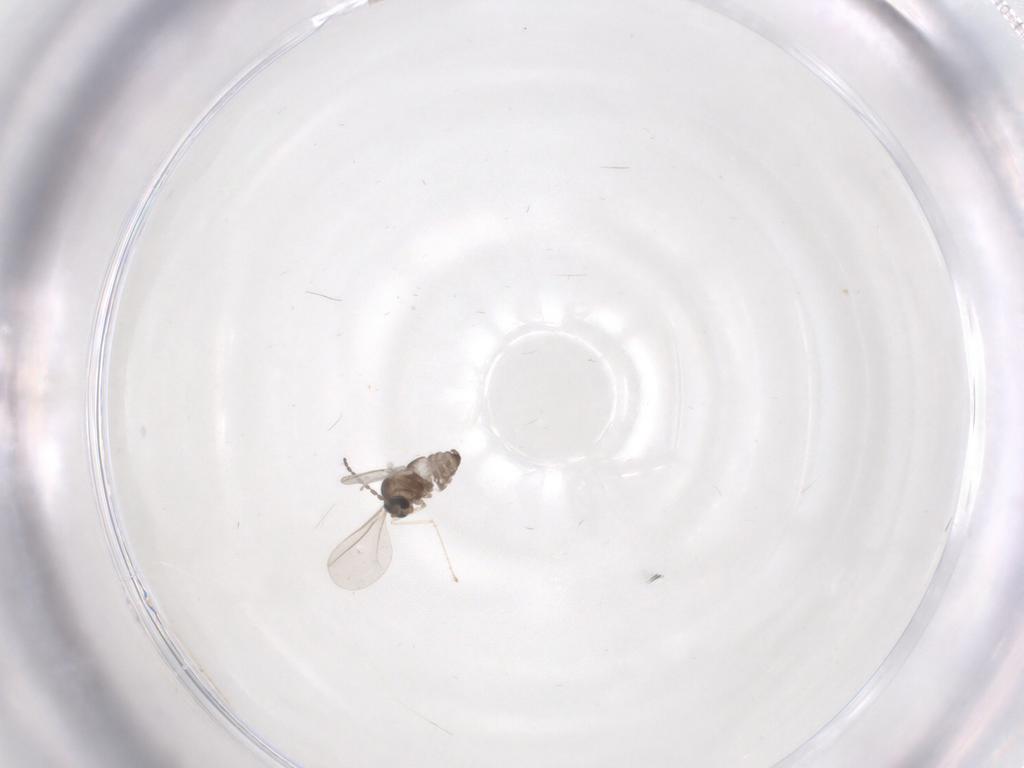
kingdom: Animalia
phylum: Arthropoda
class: Insecta
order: Diptera
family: Cecidomyiidae
